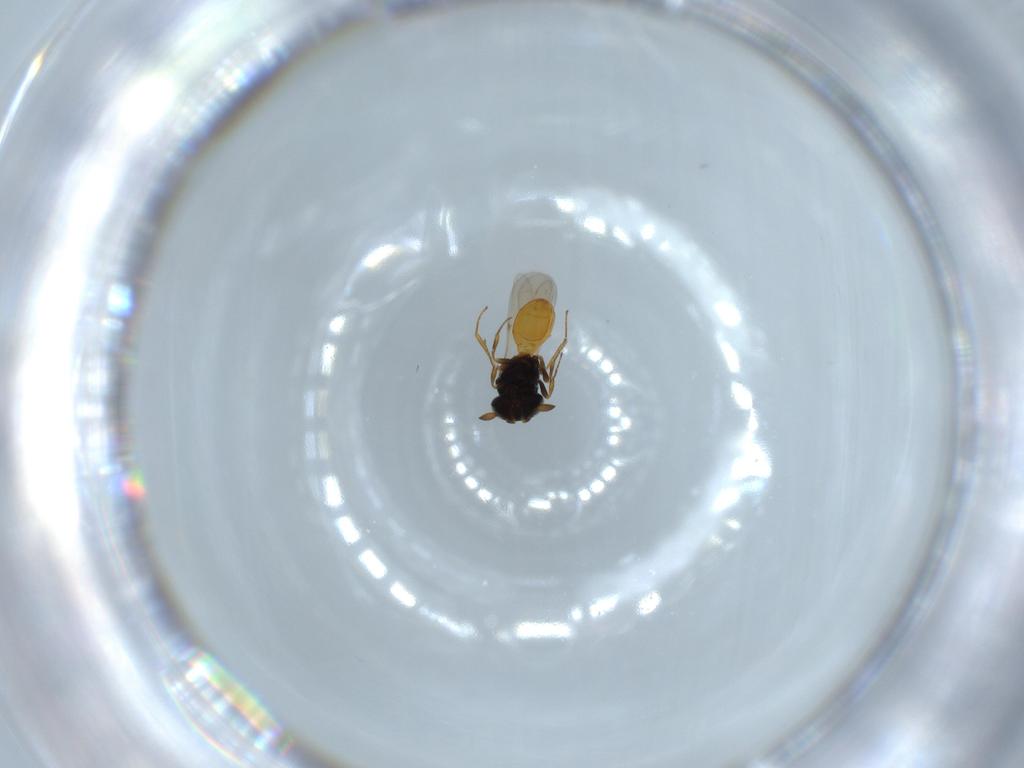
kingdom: Animalia
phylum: Arthropoda
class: Insecta
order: Hymenoptera
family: Scelionidae
